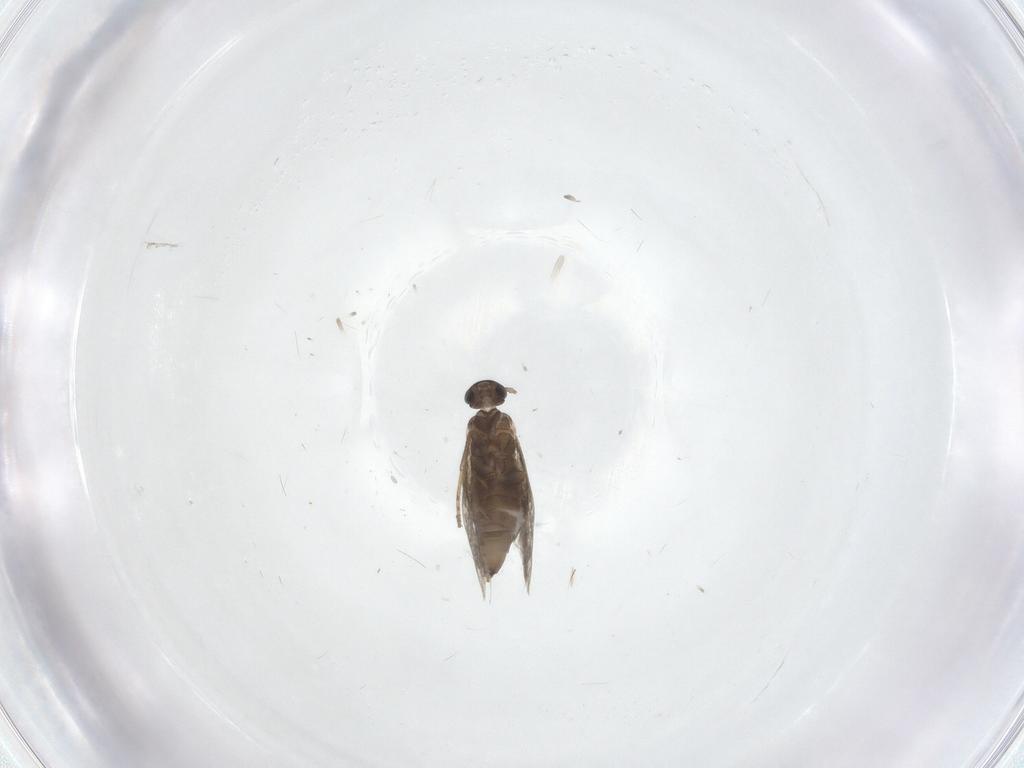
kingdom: Animalia
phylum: Arthropoda
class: Insecta
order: Lepidoptera
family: Heliozelidae
